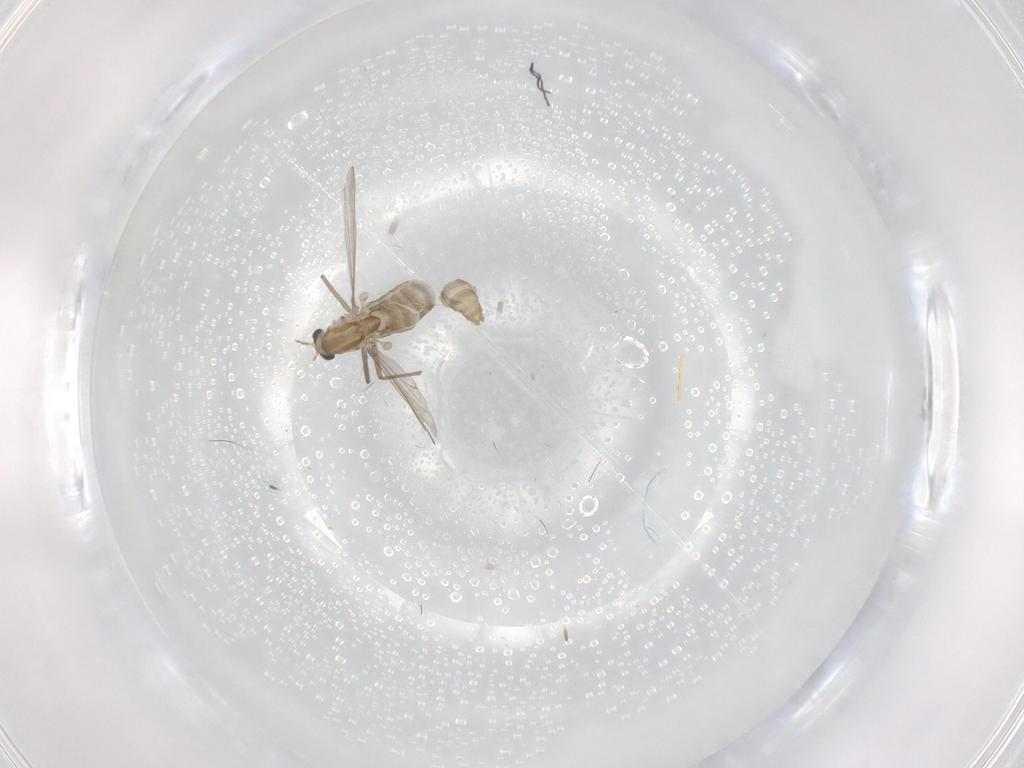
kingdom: Animalia
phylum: Arthropoda
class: Insecta
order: Diptera
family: Chironomidae
